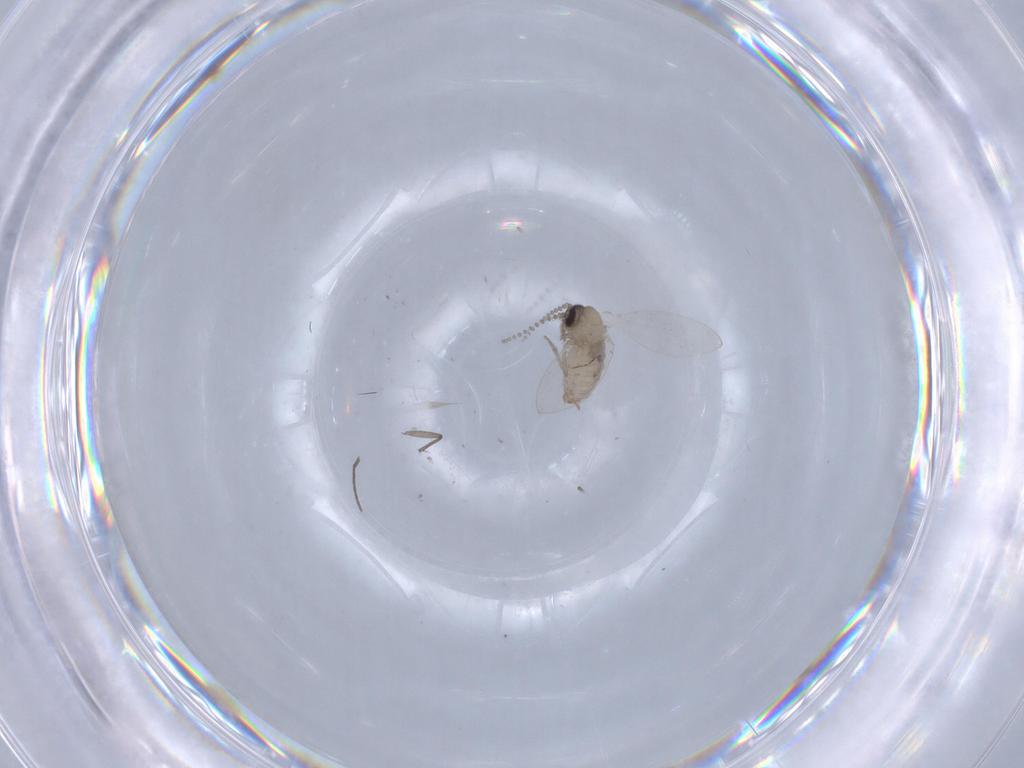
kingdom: Animalia
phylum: Arthropoda
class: Insecta
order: Diptera
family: Psychodidae
